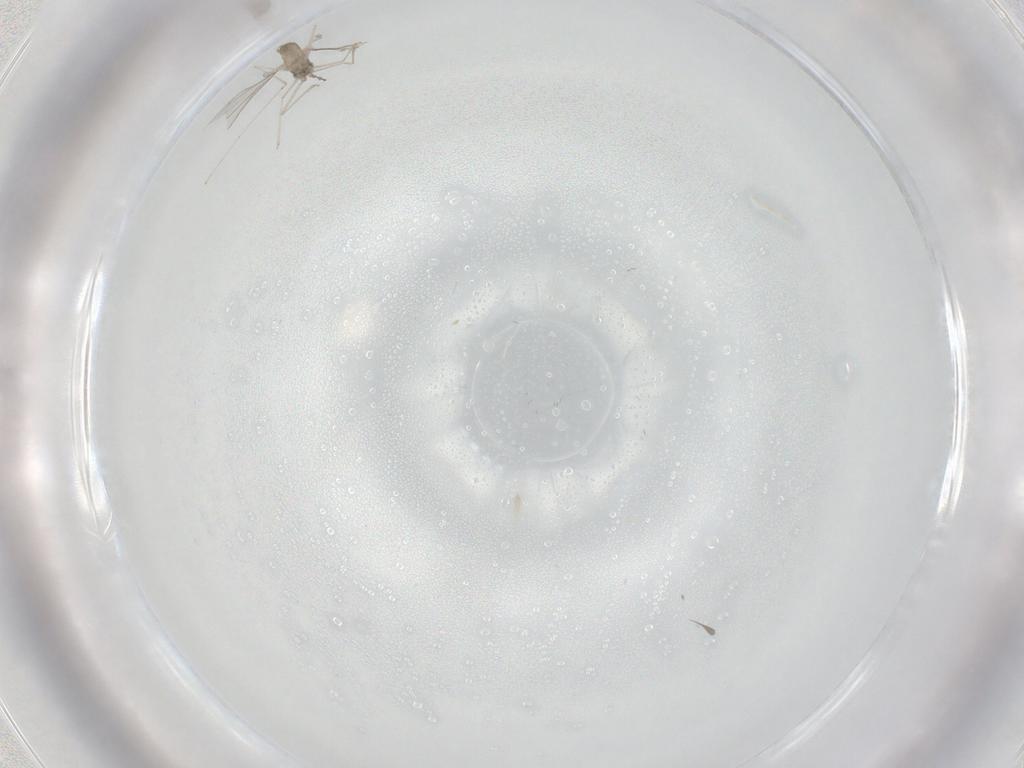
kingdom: Animalia
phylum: Arthropoda
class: Insecta
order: Diptera
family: Cecidomyiidae
